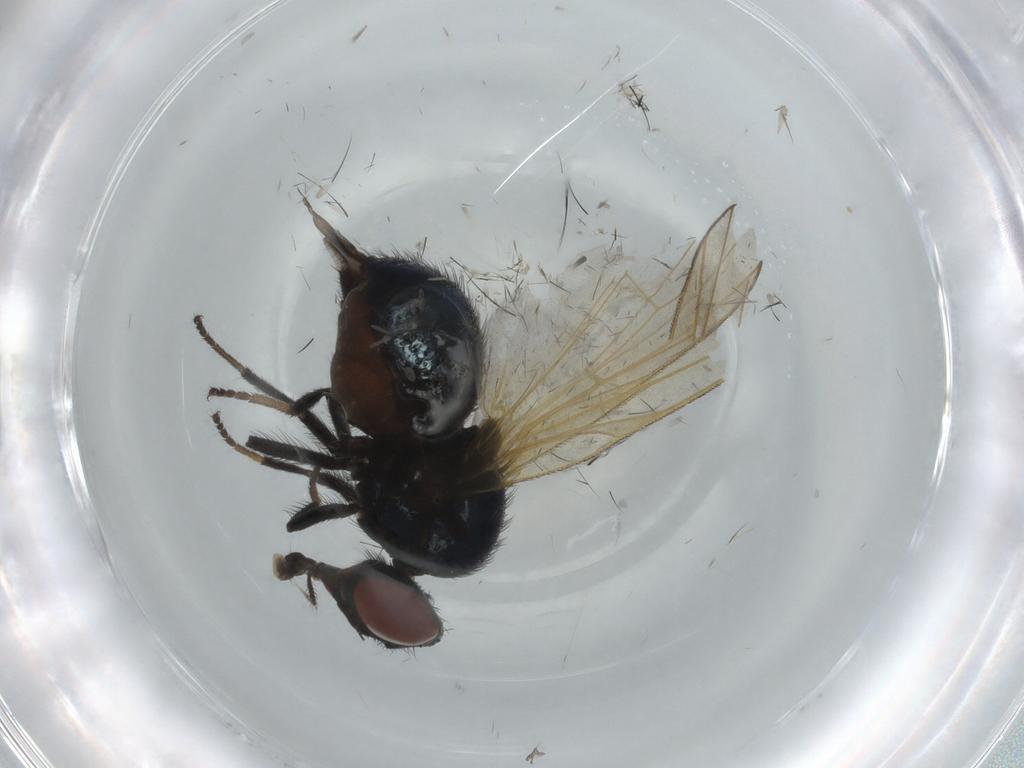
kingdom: Animalia
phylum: Arthropoda
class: Insecta
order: Diptera
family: Lonchaeidae
